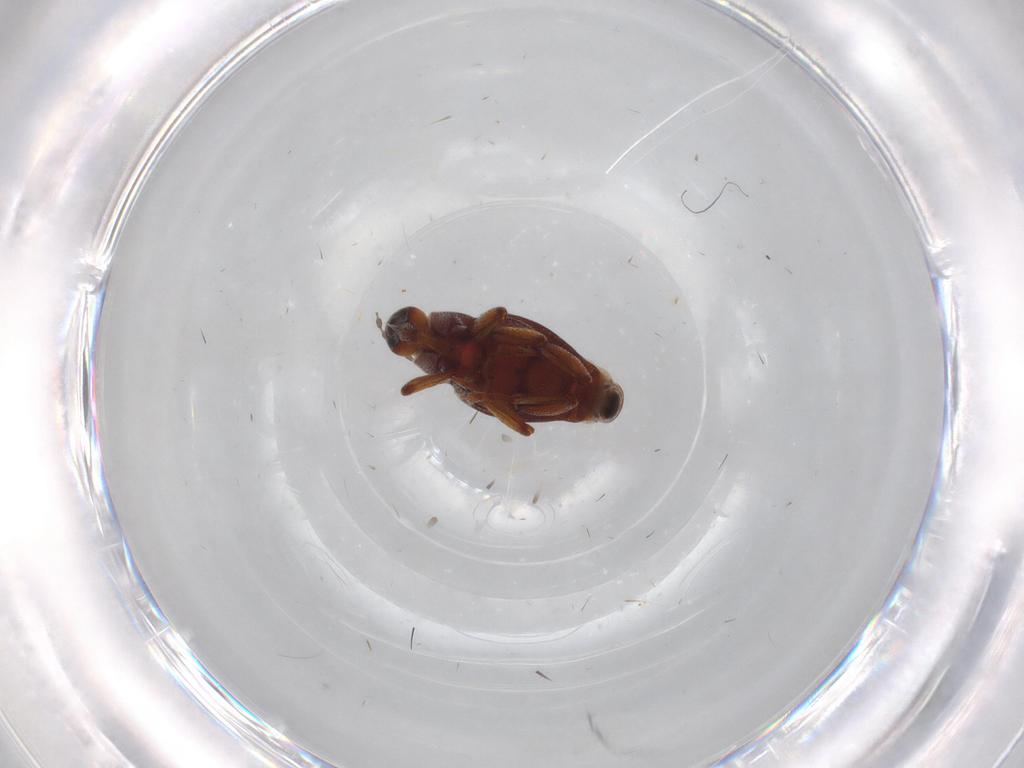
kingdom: Animalia
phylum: Arthropoda
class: Insecta
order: Coleoptera
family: Curculionidae
